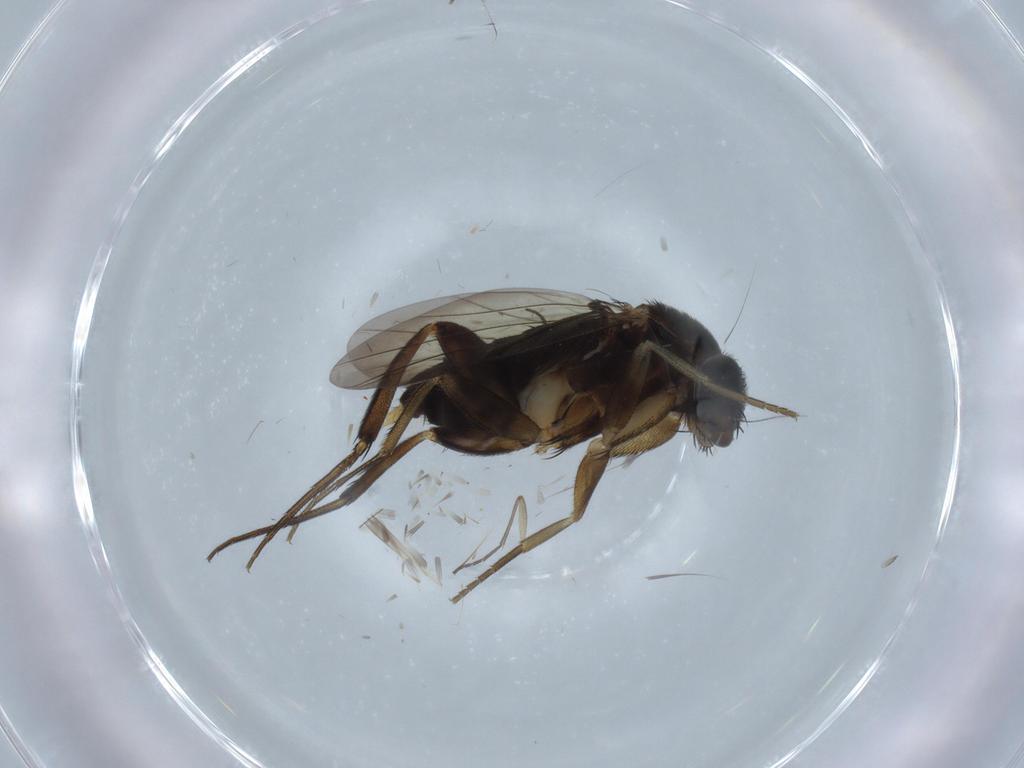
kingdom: Animalia
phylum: Arthropoda
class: Insecta
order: Diptera
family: Phoridae
